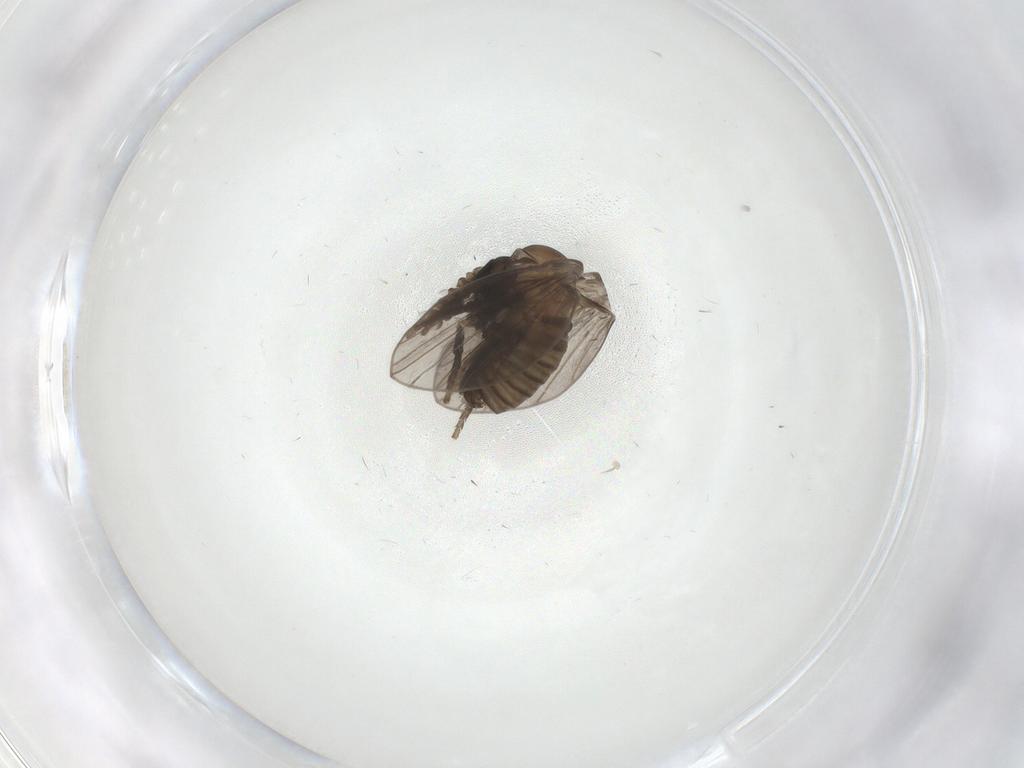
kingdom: Animalia
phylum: Arthropoda
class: Insecta
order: Diptera
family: Psychodidae
